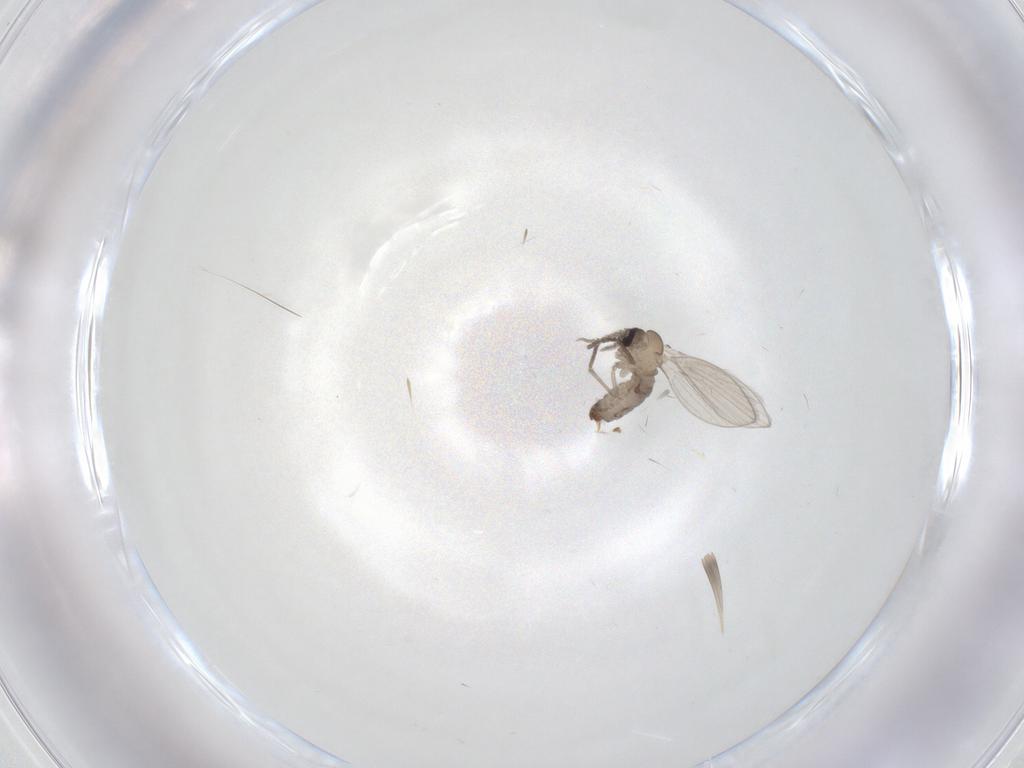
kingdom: Animalia
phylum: Arthropoda
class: Insecta
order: Diptera
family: Psychodidae
